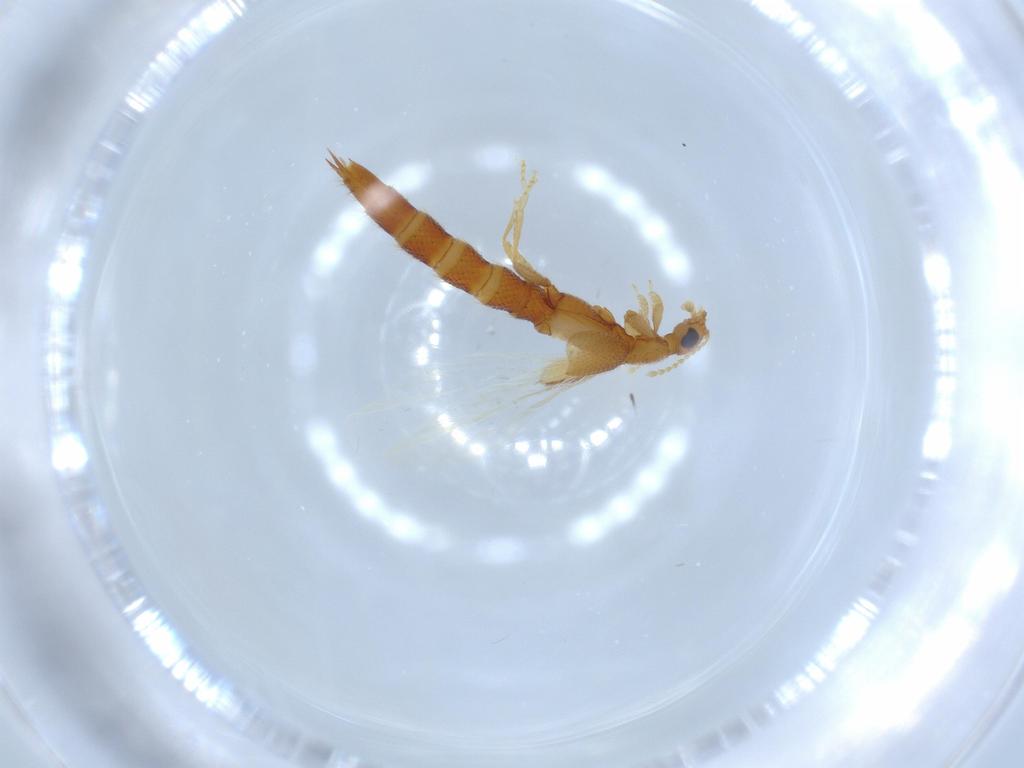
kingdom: Animalia
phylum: Arthropoda
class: Insecta
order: Coleoptera
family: Staphylinidae
